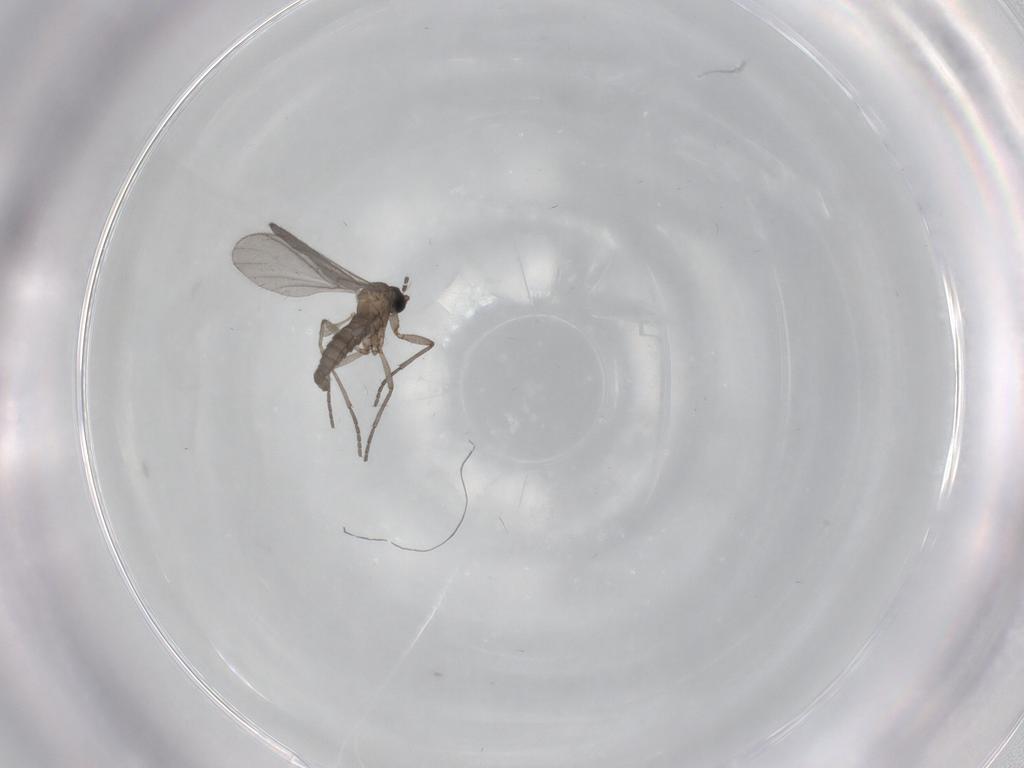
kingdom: Animalia
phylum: Arthropoda
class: Insecta
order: Diptera
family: Sciaridae
